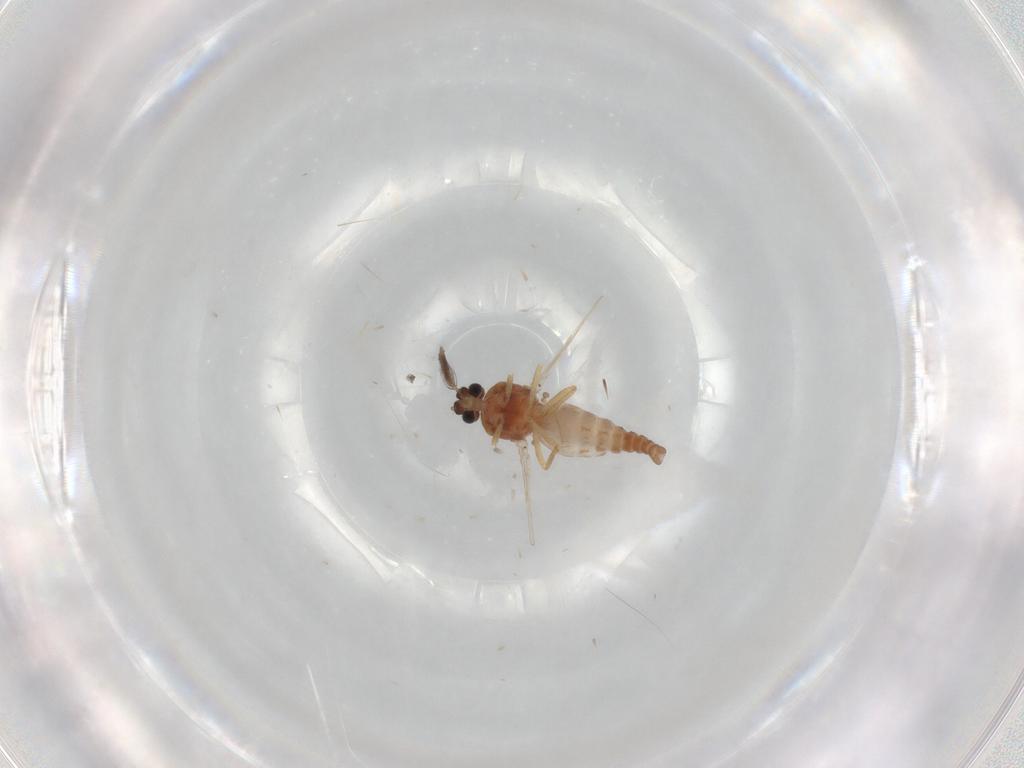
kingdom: Animalia
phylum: Arthropoda
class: Insecta
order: Diptera
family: Ceratopogonidae
